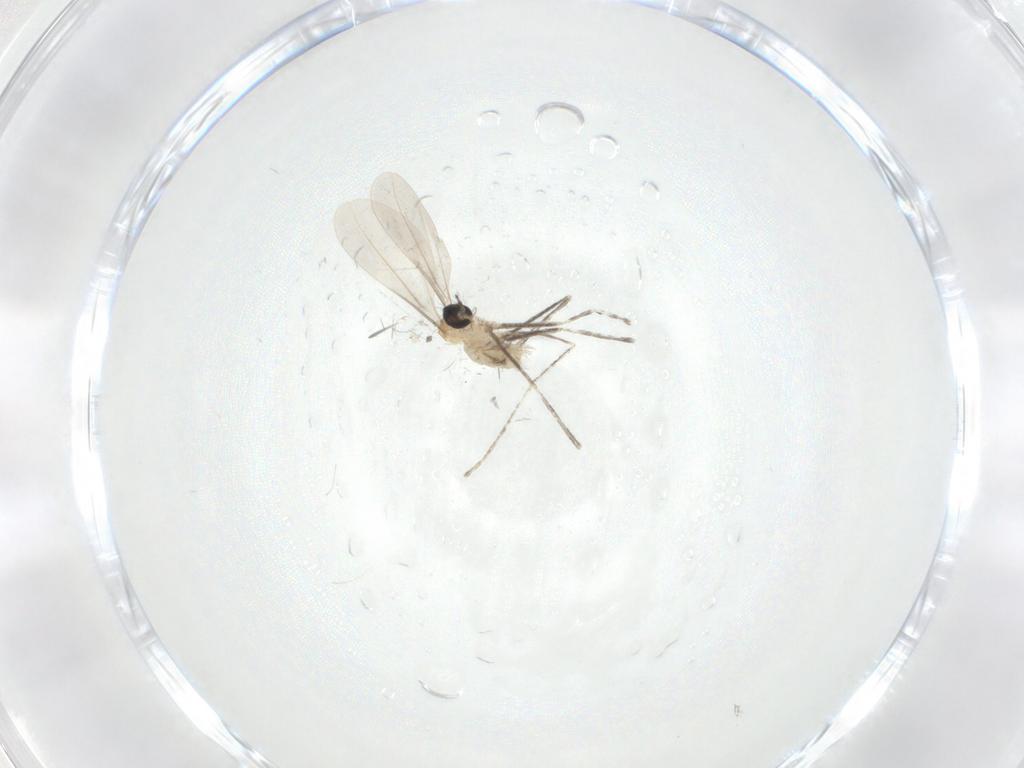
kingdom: Animalia
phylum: Arthropoda
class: Insecta
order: Diptera
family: Cecidomyiidae
